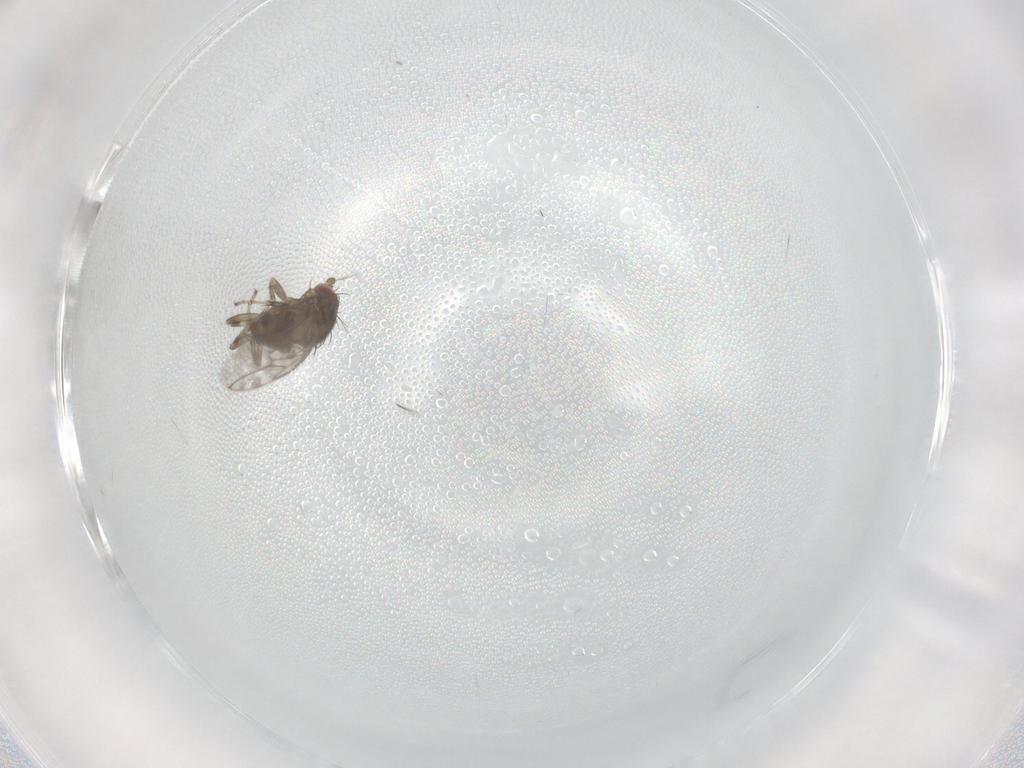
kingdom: Animalia
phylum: Arthropoda
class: Insecta
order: Diptera
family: Sphaeroceridae
